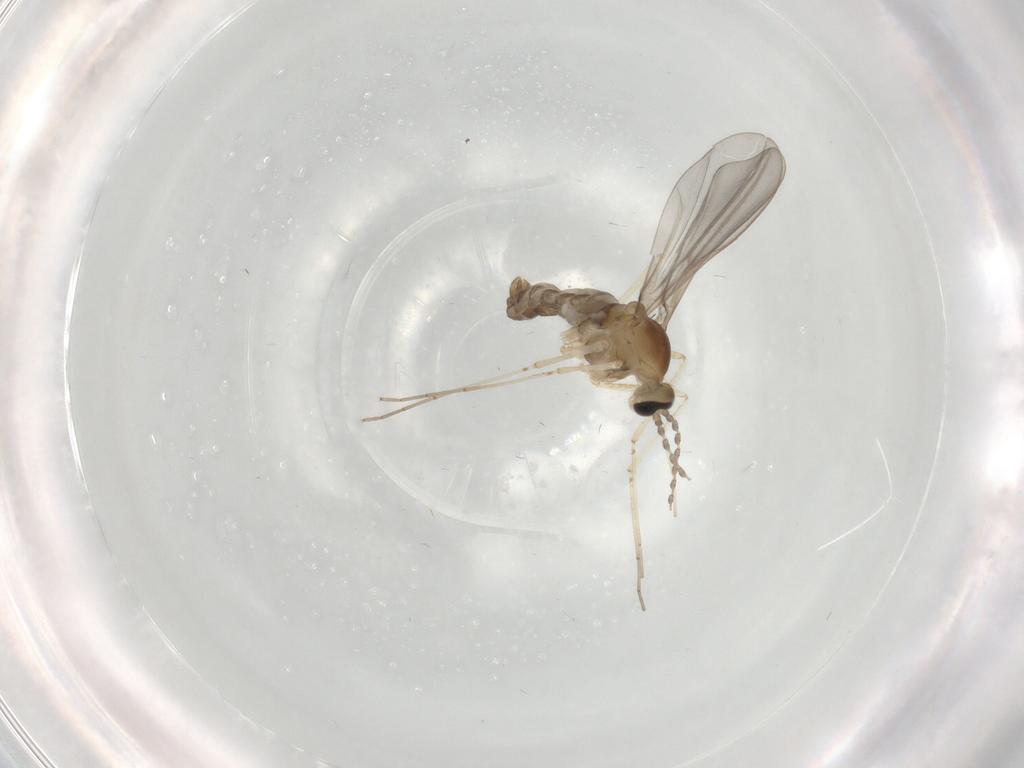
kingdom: Animalia
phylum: Arthropoda
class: Insecta
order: Diptera
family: Cecidomyiidae
